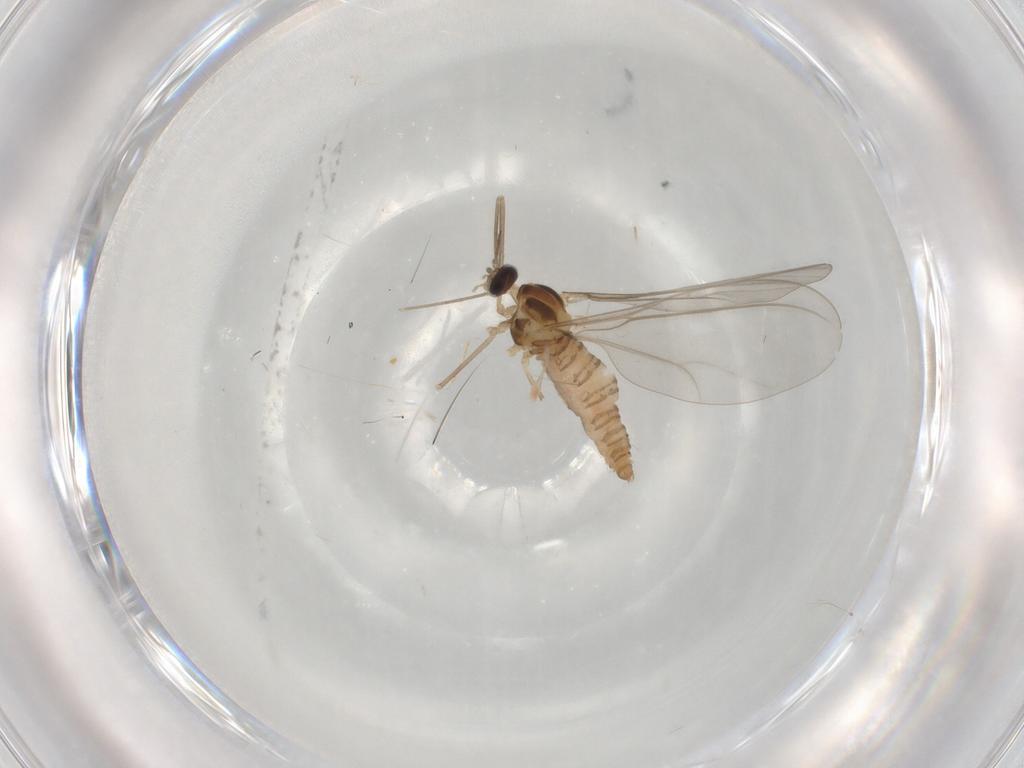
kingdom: Animalia
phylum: Arthropoda
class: Insecta
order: Diptera
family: Cecidomyiidae
